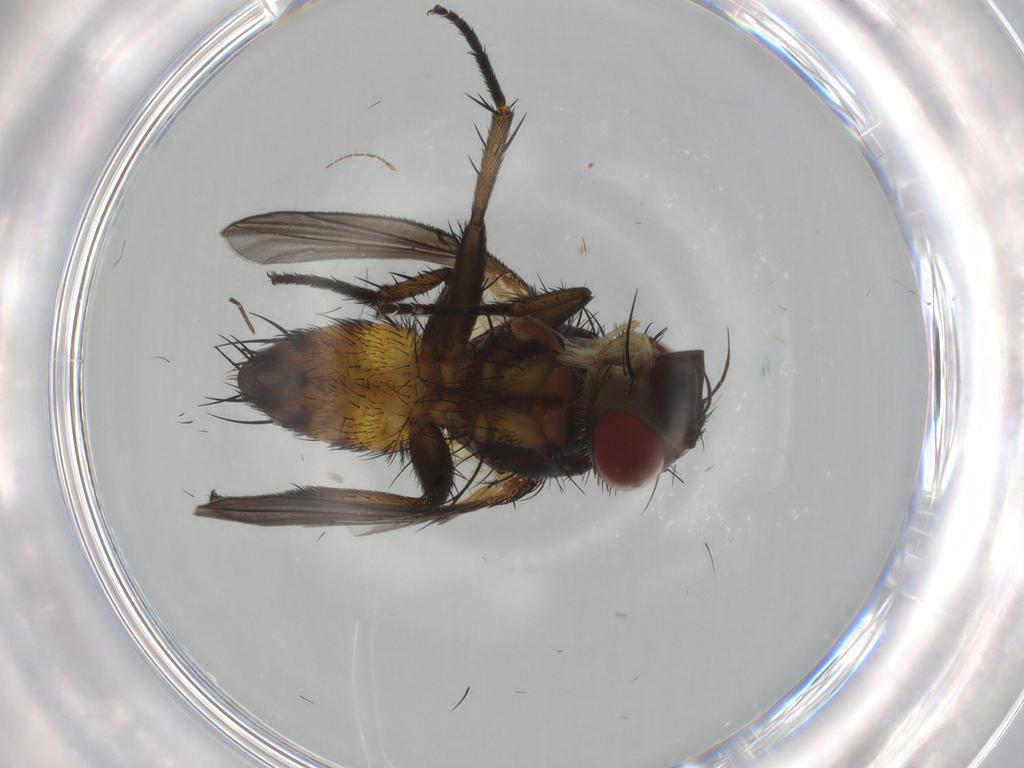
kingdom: Animalia
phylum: Arthropoda
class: Insecta
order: Diptera
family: Tachinidae
